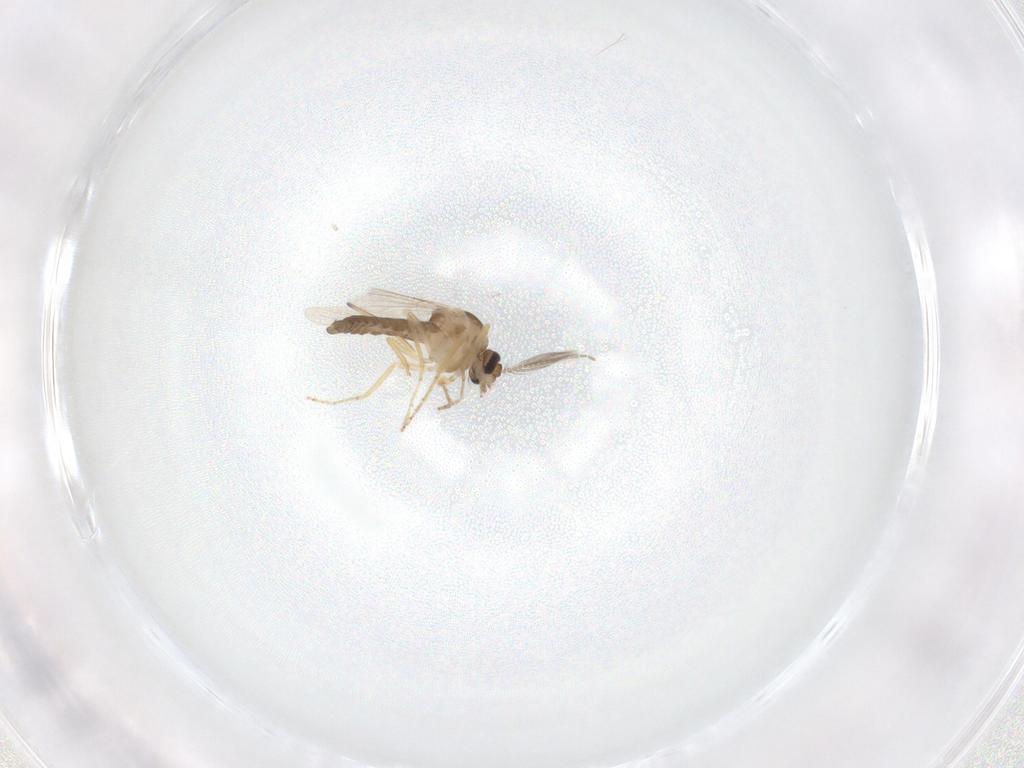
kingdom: Animalia
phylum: Arthropoda
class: Insecta
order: Diptera
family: Ceratopogonidae
